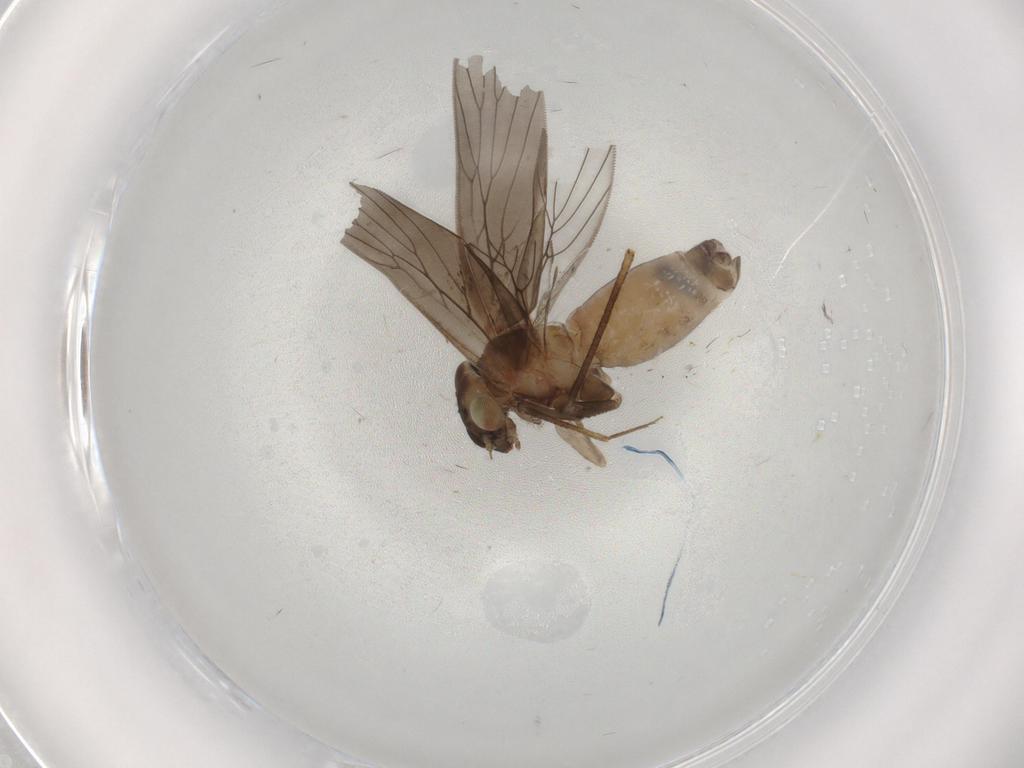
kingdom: Animalia
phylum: Arthropoda
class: Insecta
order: Psocodea
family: Lepidopsocidae
